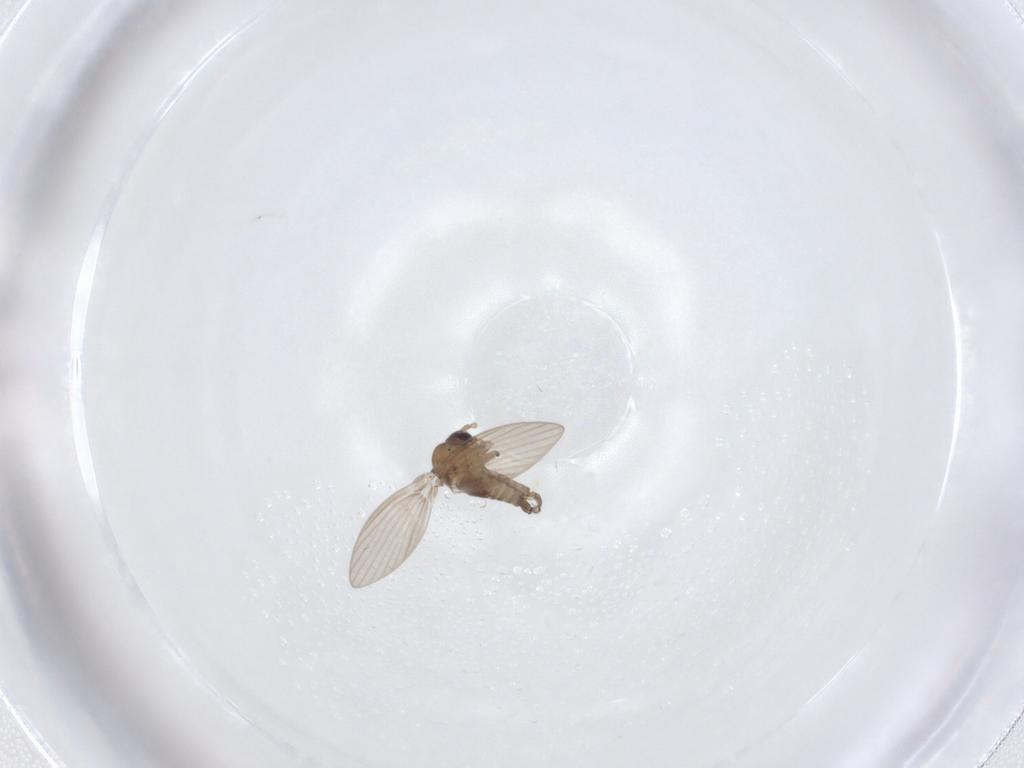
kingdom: Animalia
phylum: Arthropoda
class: Insecta
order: Diptera
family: Psychodidae
